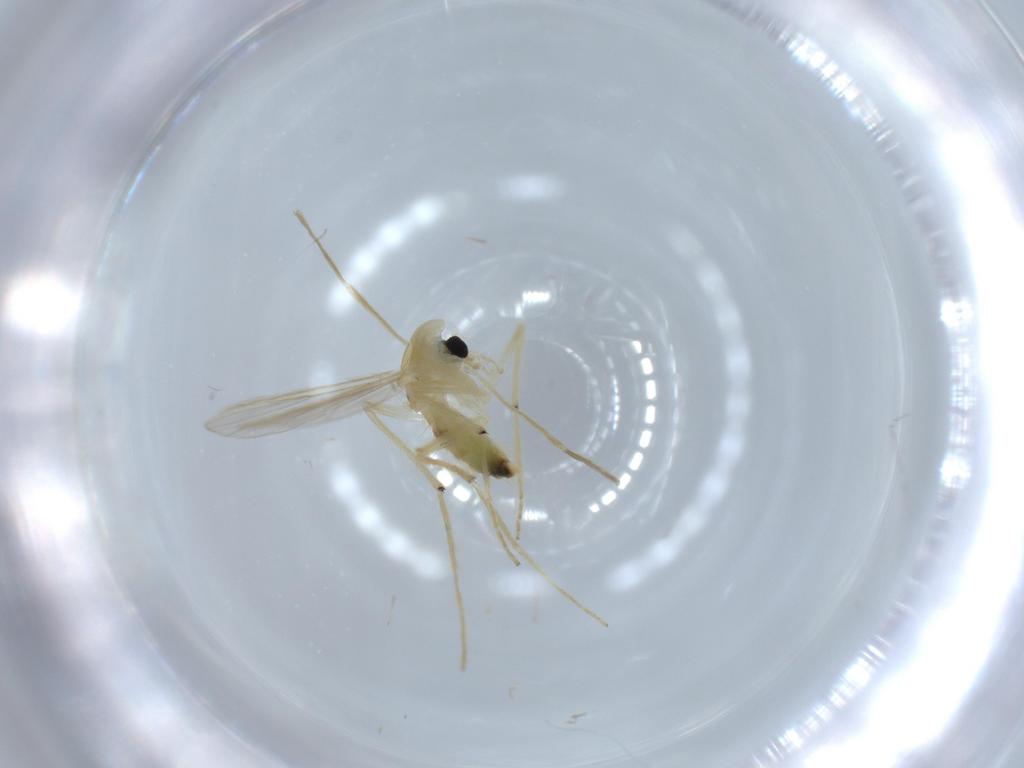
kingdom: Animalia
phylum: Arthropoda
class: Insecta
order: Diptera
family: Chironomidae
